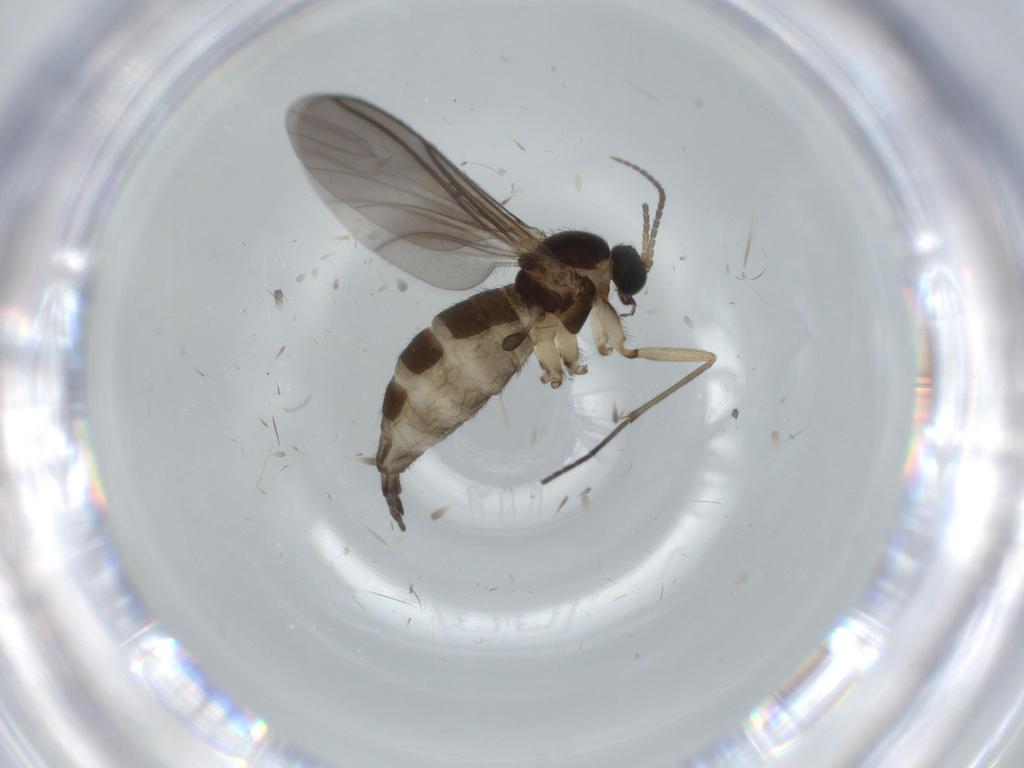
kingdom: Animalia
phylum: Arthropoda
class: Insecta
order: Diptera
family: Sciaridae
